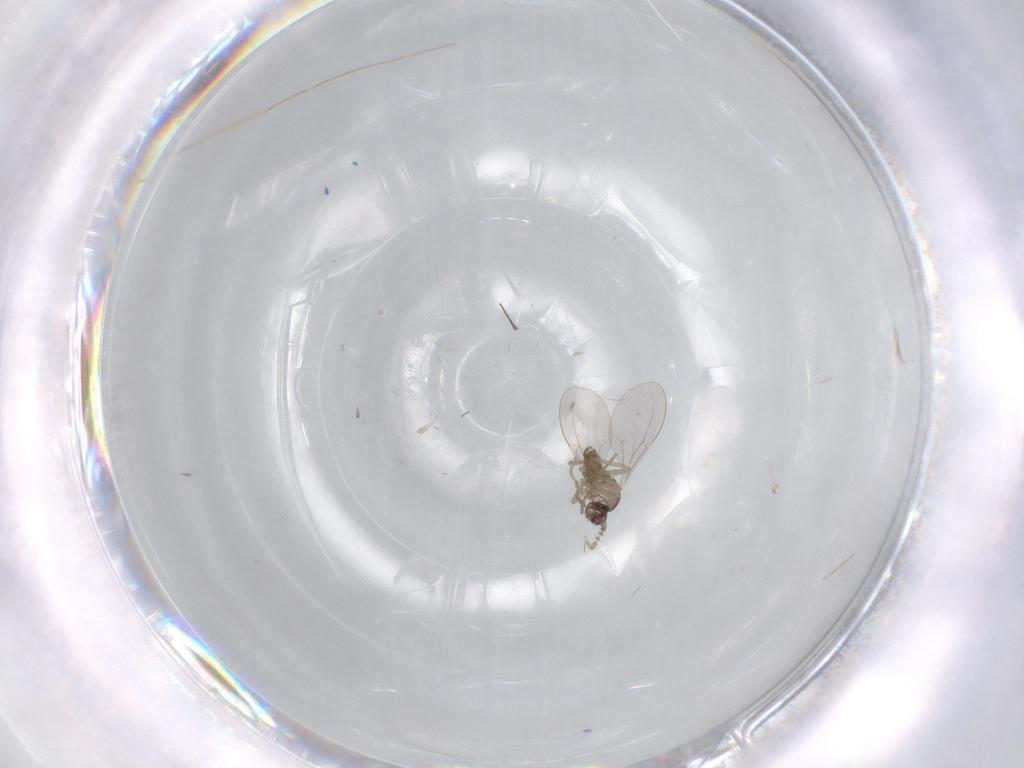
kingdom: Animalia
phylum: Arthropoda
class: Insecta
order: Diptera
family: Cecidomyiidae
